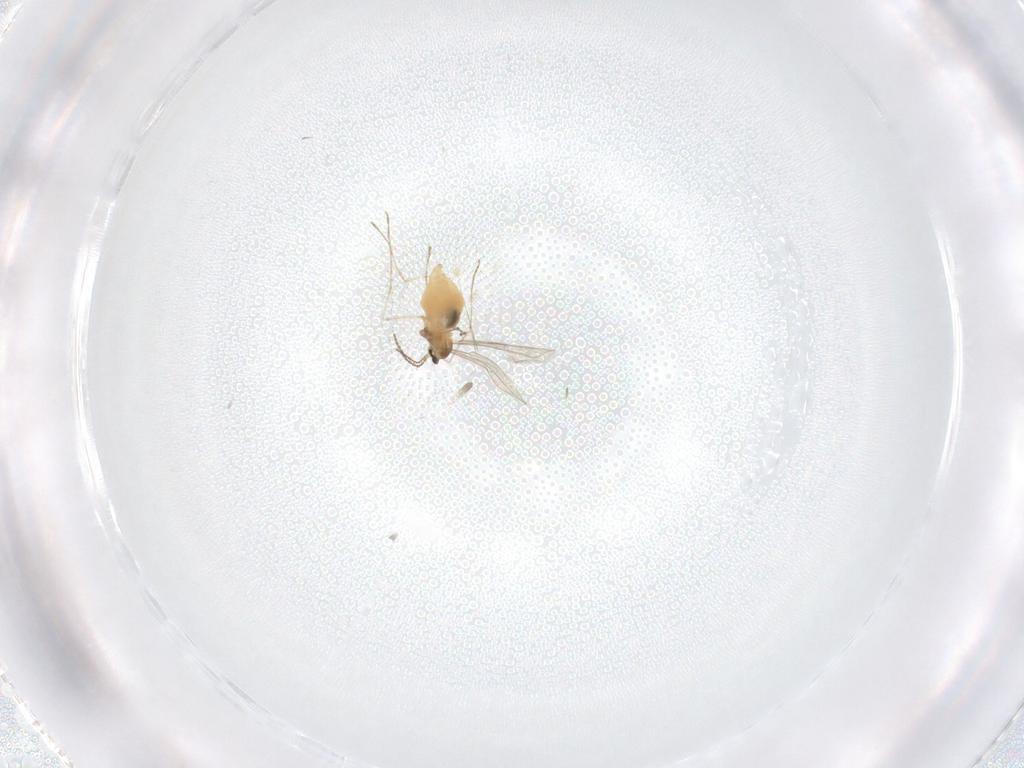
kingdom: Animalia
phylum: Arthropoda
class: Insecta
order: Diptera
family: Cecidomyiidae
